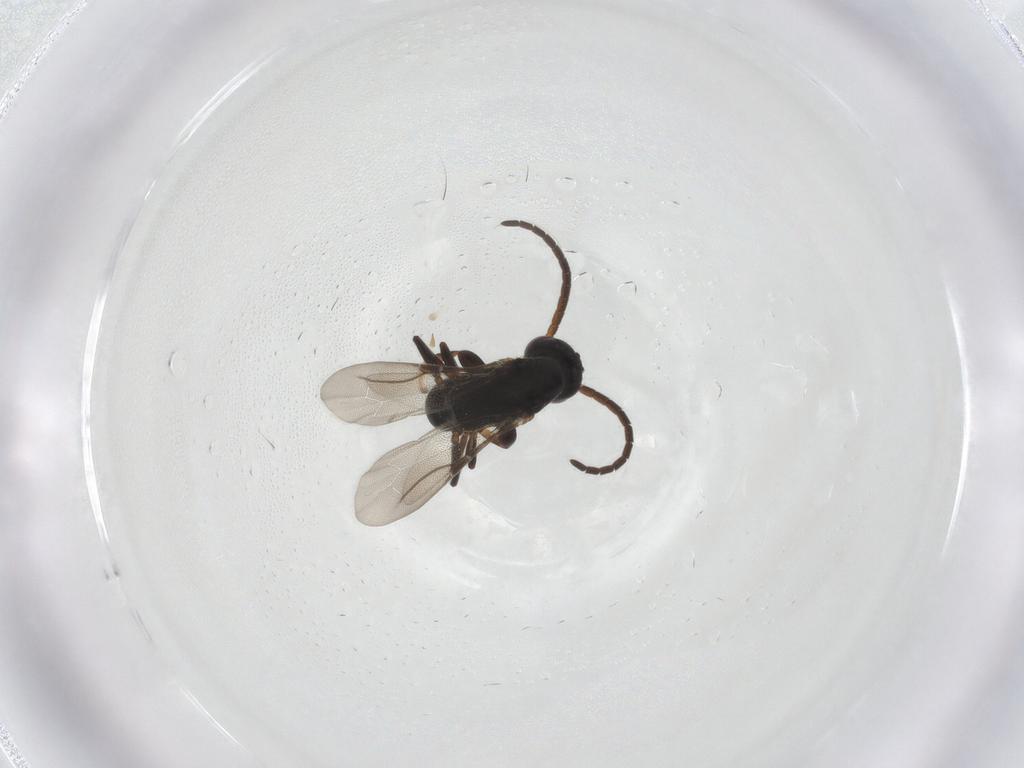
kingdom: Animalia
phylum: Arthropoda
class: Insecta
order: Hymenoptera
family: Bethylidae
